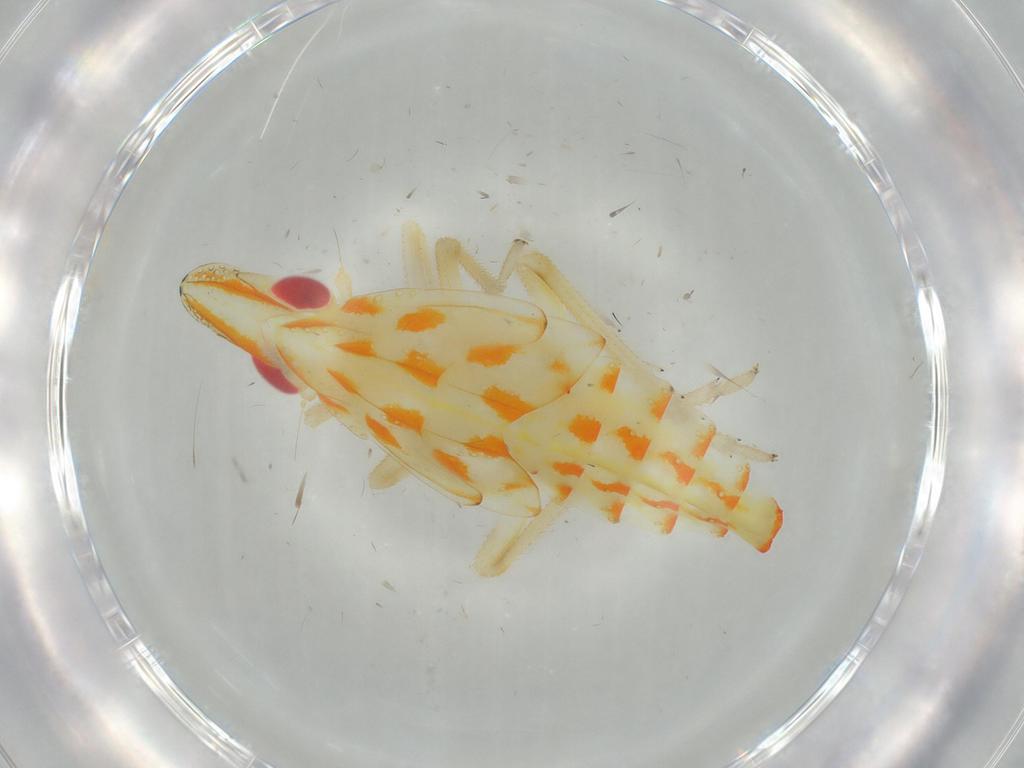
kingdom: Animalia
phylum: Arthropoda
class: Insecta
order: Hemiptera
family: Tropiduchidae
